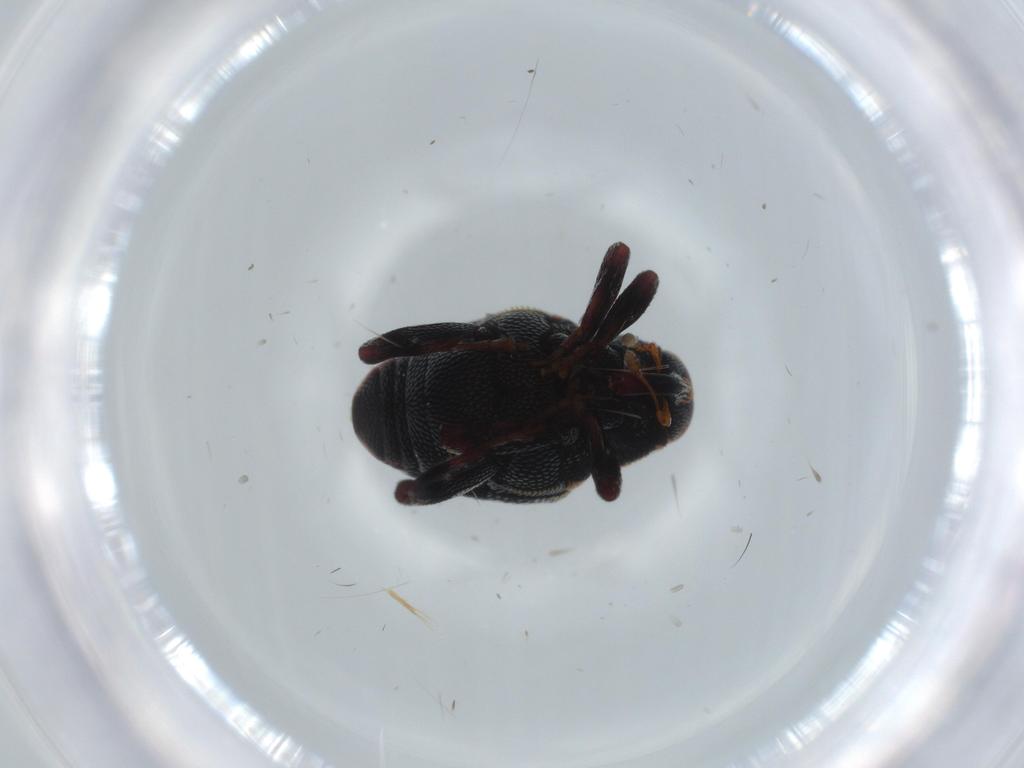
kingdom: Animalia
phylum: Arthropoda
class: Insecta
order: Coleoptera
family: Curculionidae
